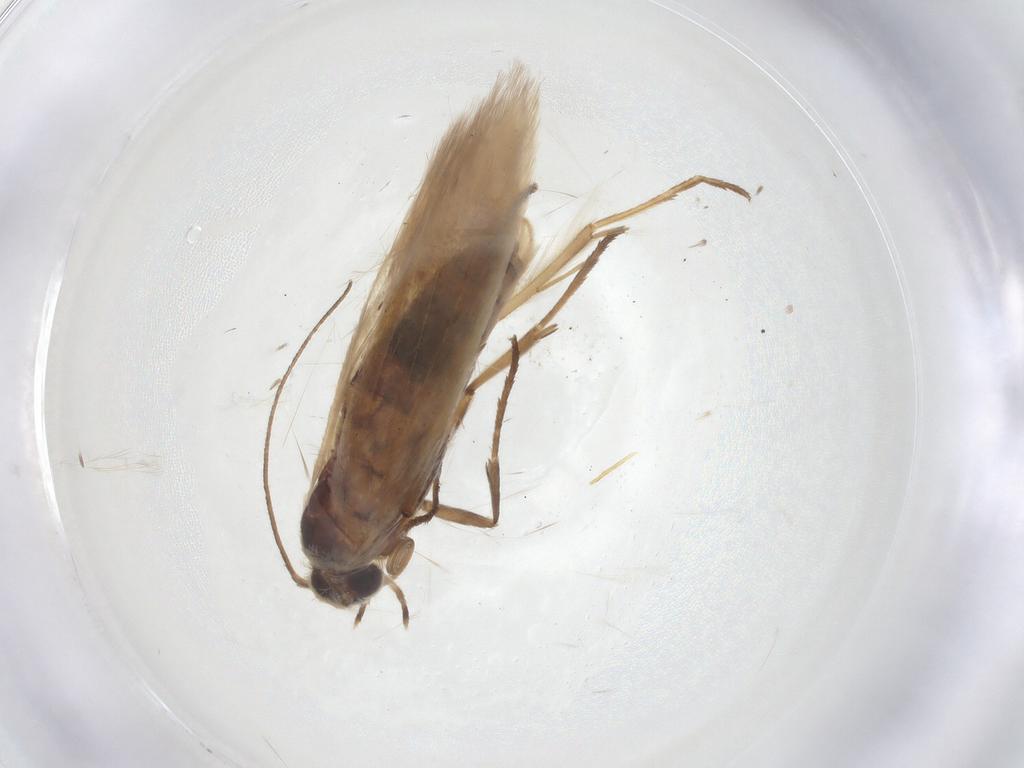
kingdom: Animalia
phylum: Arthropoda
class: Insecta
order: Lepidoptera
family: Scythrididae
